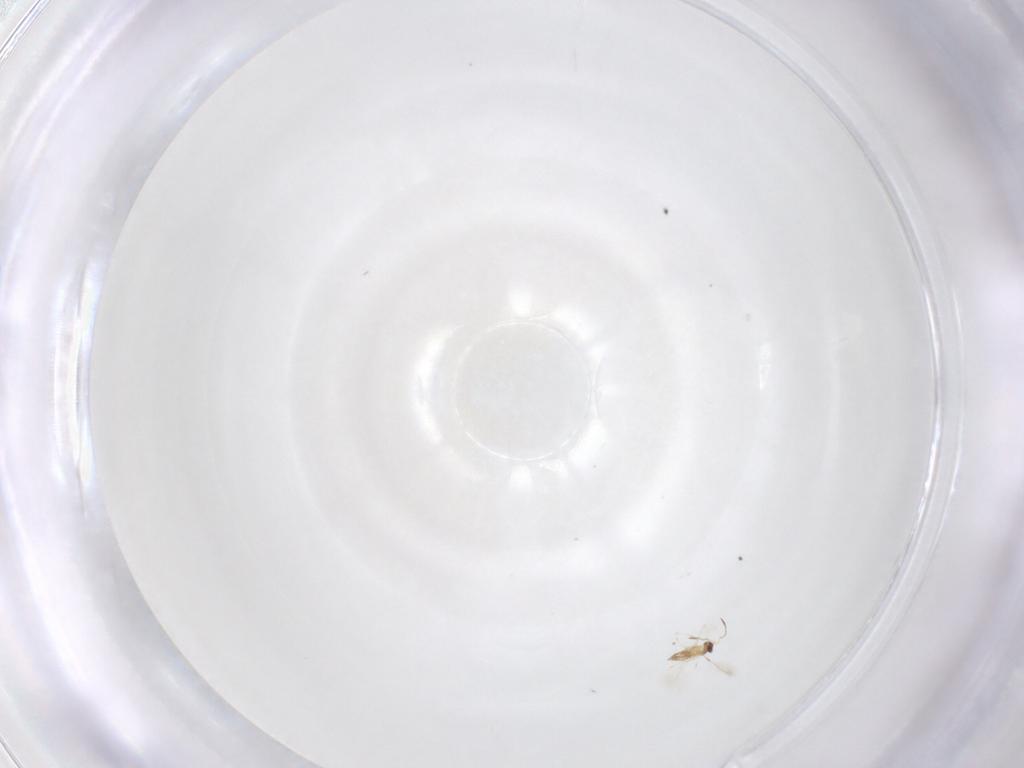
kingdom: Animalia
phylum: Arthropoda
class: Insecta
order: Hymenoptera
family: Mymaridae
